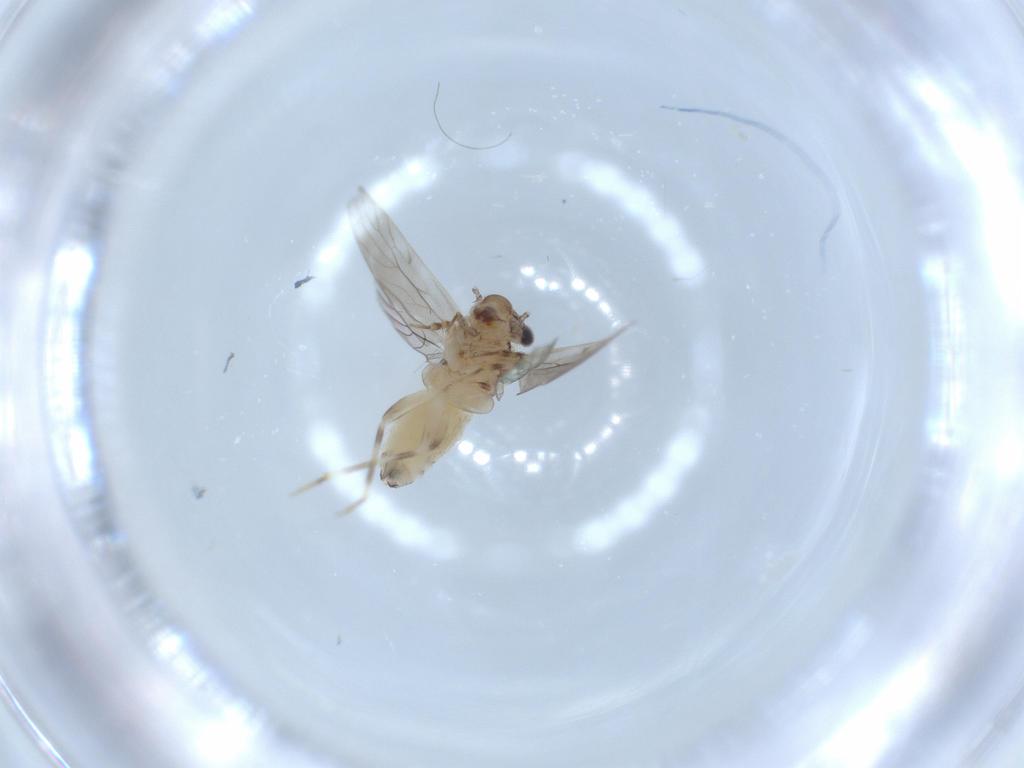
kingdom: Animalia
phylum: Arthropoda
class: Insecta
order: Psocodea
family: Lepidopsocidae
